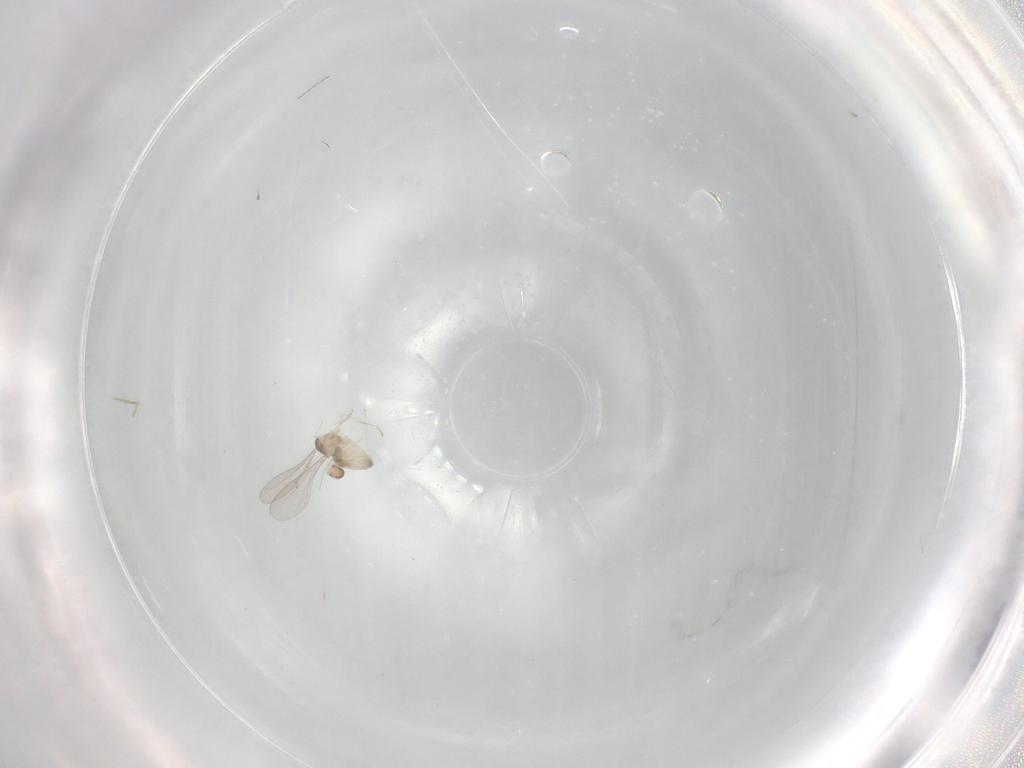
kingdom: Animalia
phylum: Arthropoda
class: Insecta
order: Diptera
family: Cecidomyiidae
